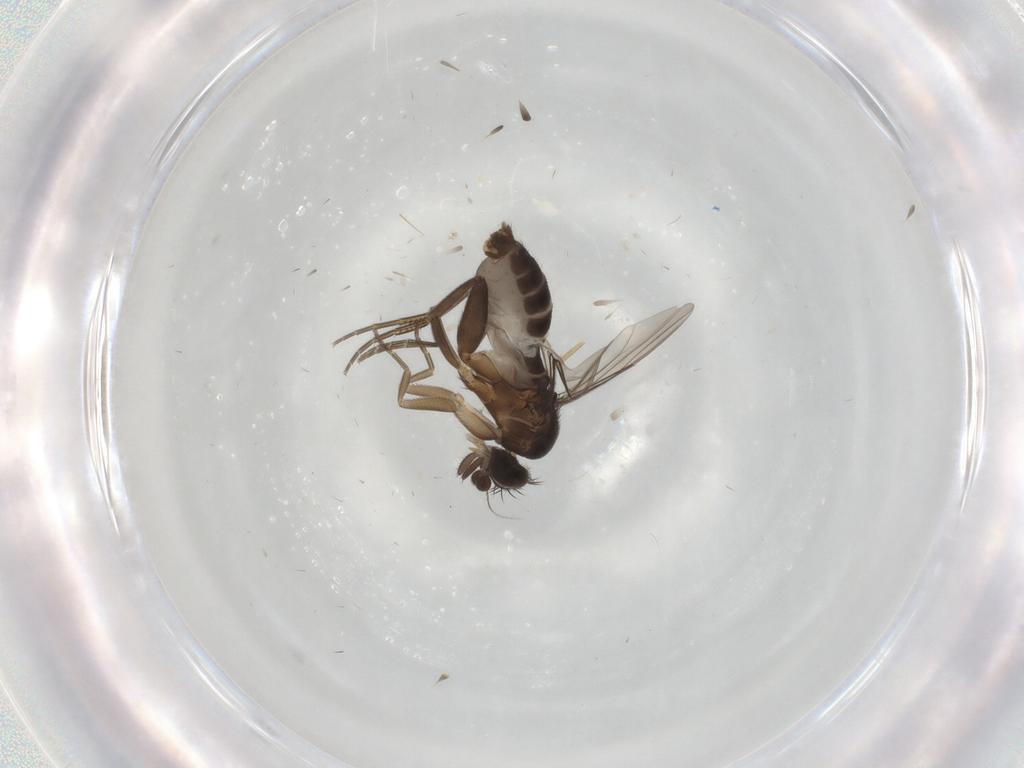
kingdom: Animalia
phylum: Arthropoda
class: Insecta
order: Diptera
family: Phoridae
